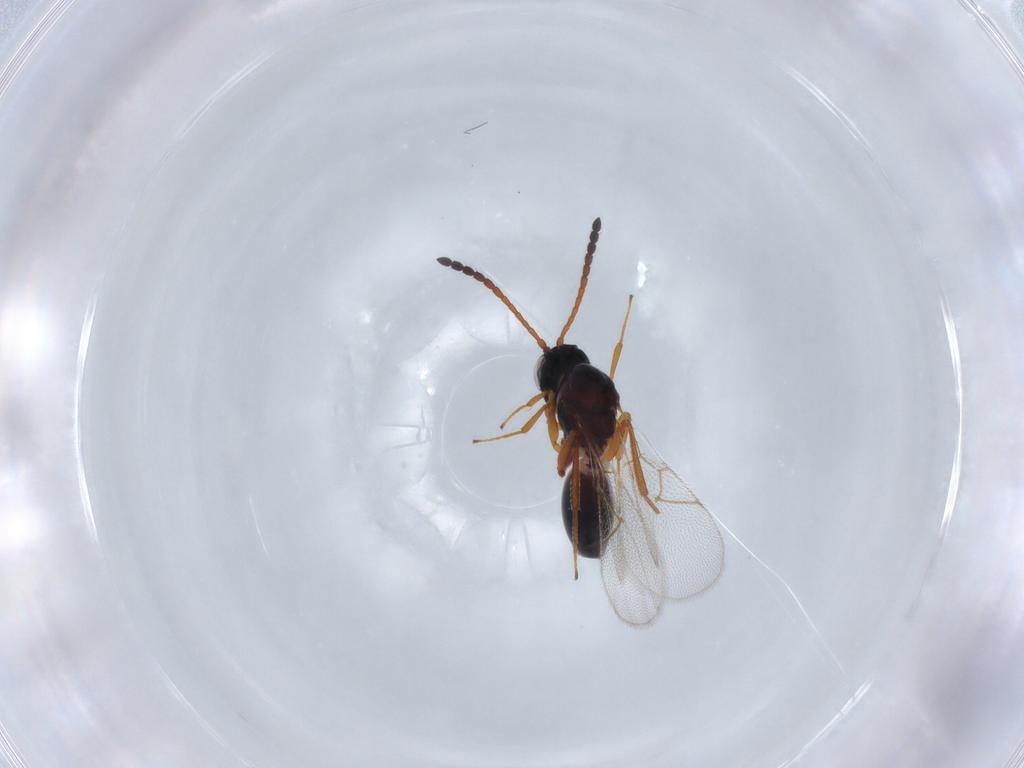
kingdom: Animalia
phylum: Arthropoda
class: Insecta
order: Hymenoptera
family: Figitidae
